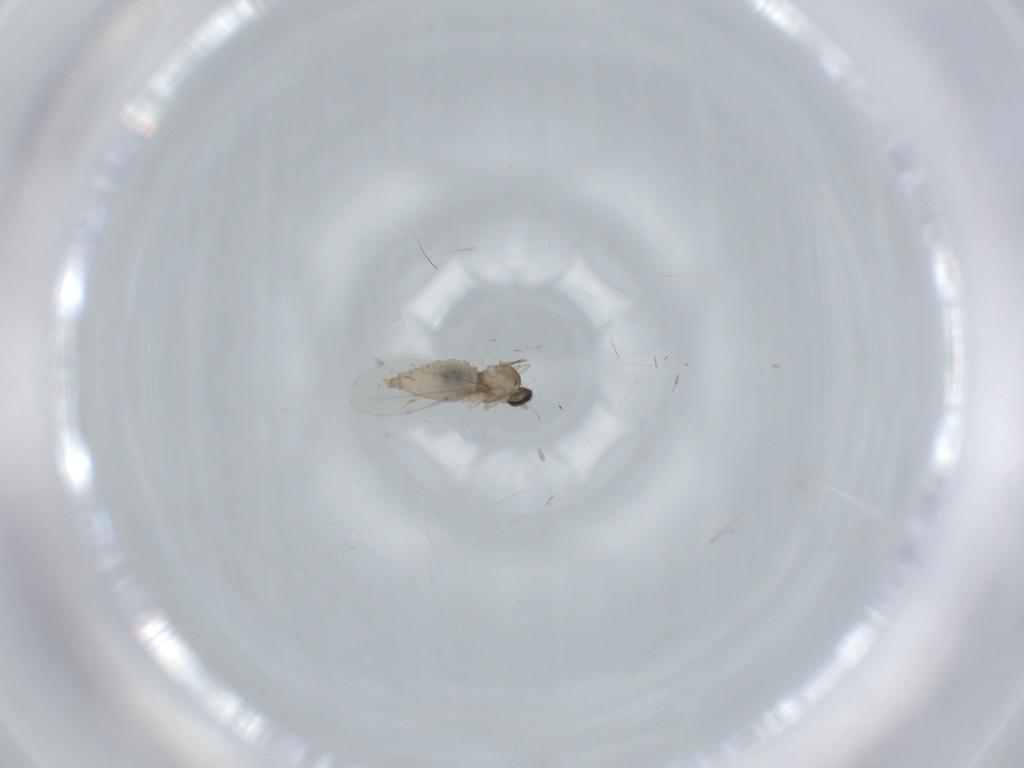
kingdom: Animalia
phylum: Arthropoda
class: Insecta
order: Diptera
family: Cecidomyiidae
